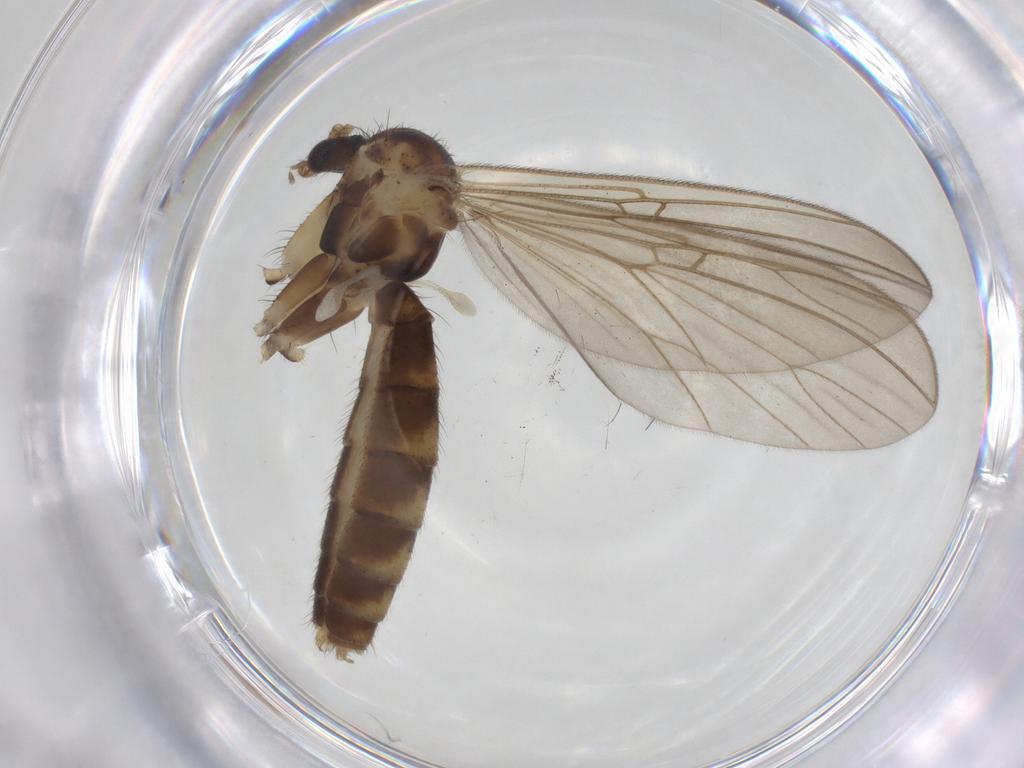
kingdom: Animalia
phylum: Arthropoda
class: Insecta
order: Diptera
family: Mycetophilidae
